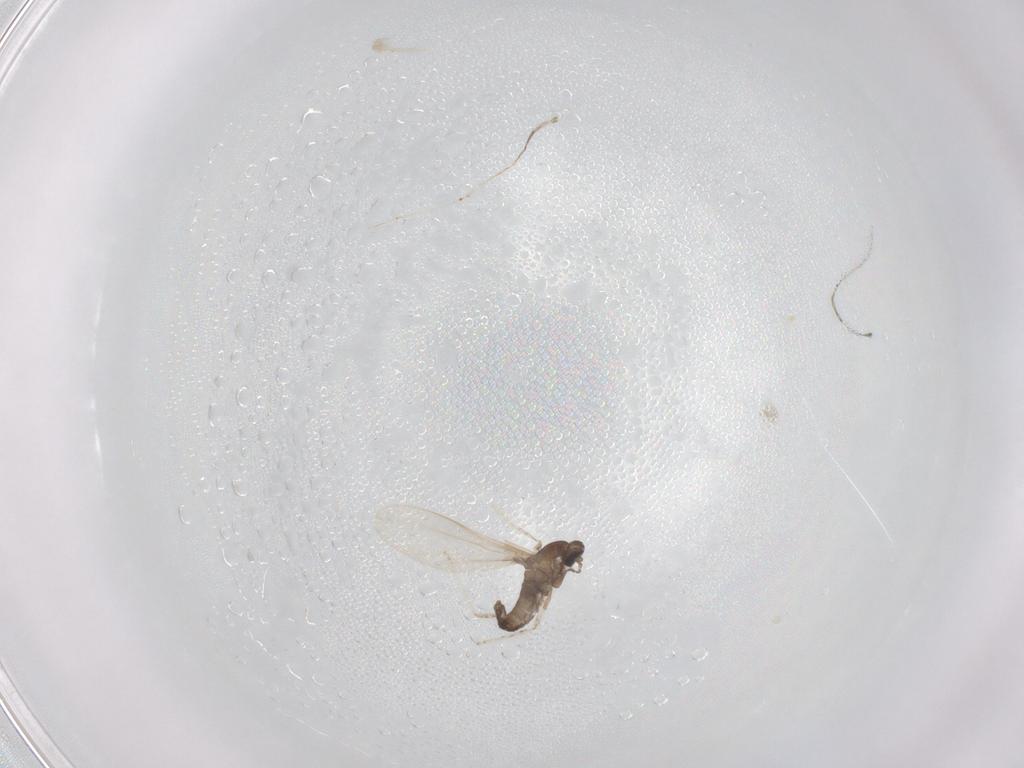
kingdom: Animalia
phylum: Arthropoda
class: Insecta
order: Diptera
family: Cecidomyiidae
